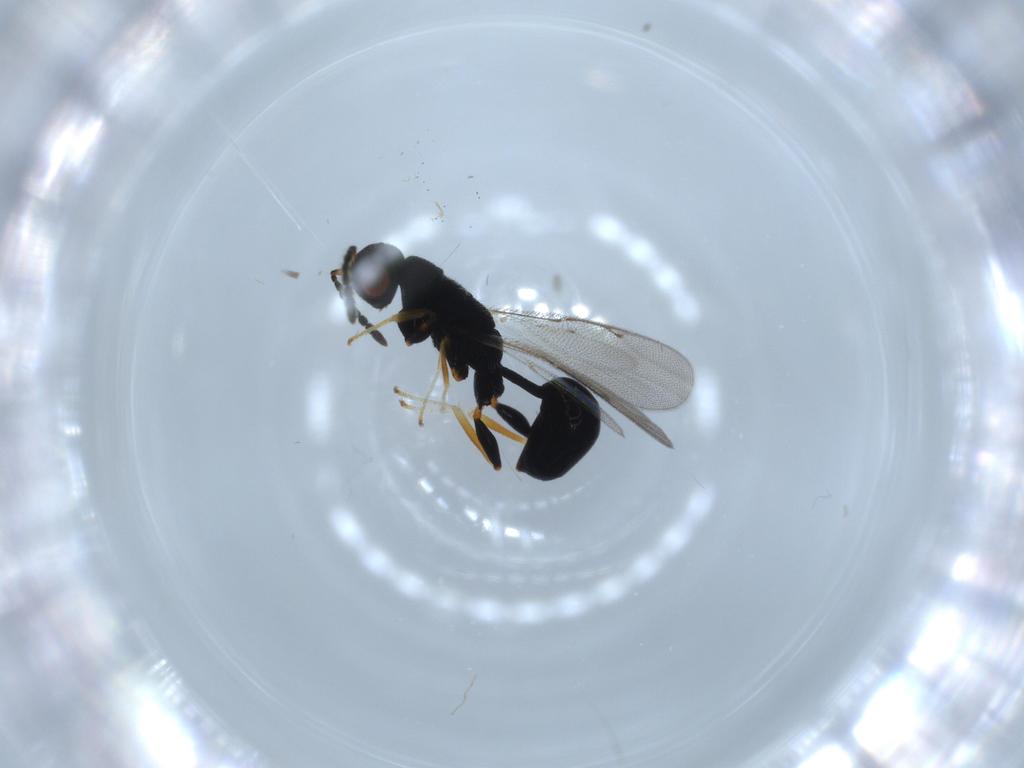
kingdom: Animalia
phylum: Arthropoda
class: Insecta
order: Hymenoptera
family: Eurytomidae
